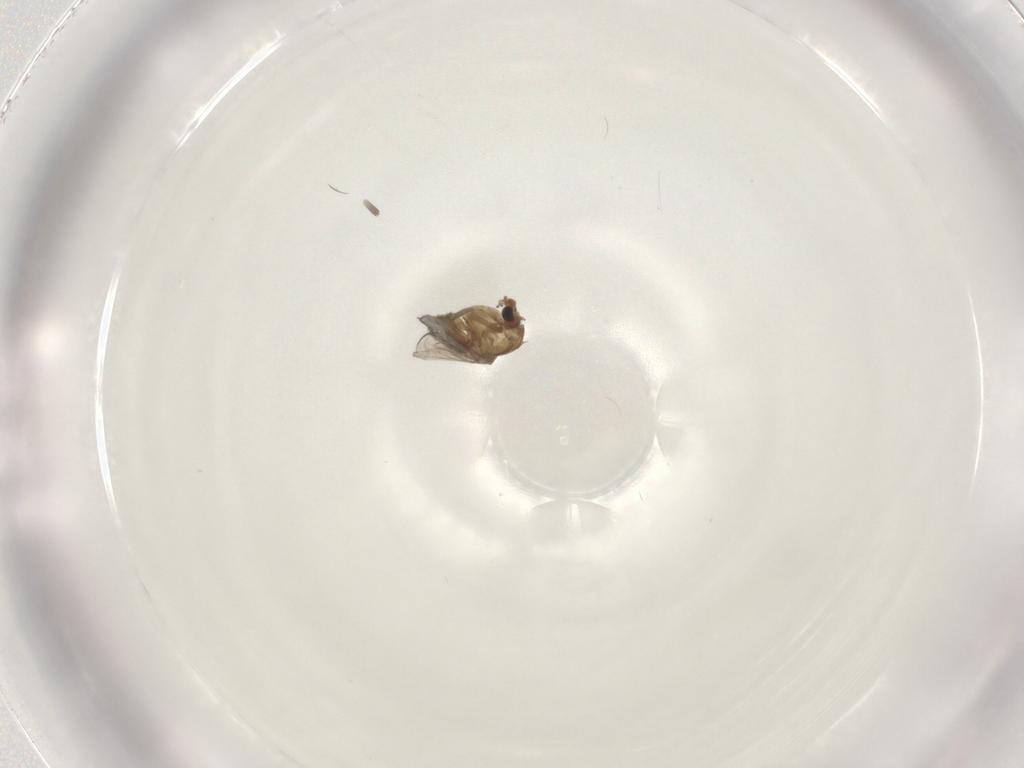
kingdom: Animalia
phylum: Arthropoda
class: Insecta
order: Diptera
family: Chironomidae
